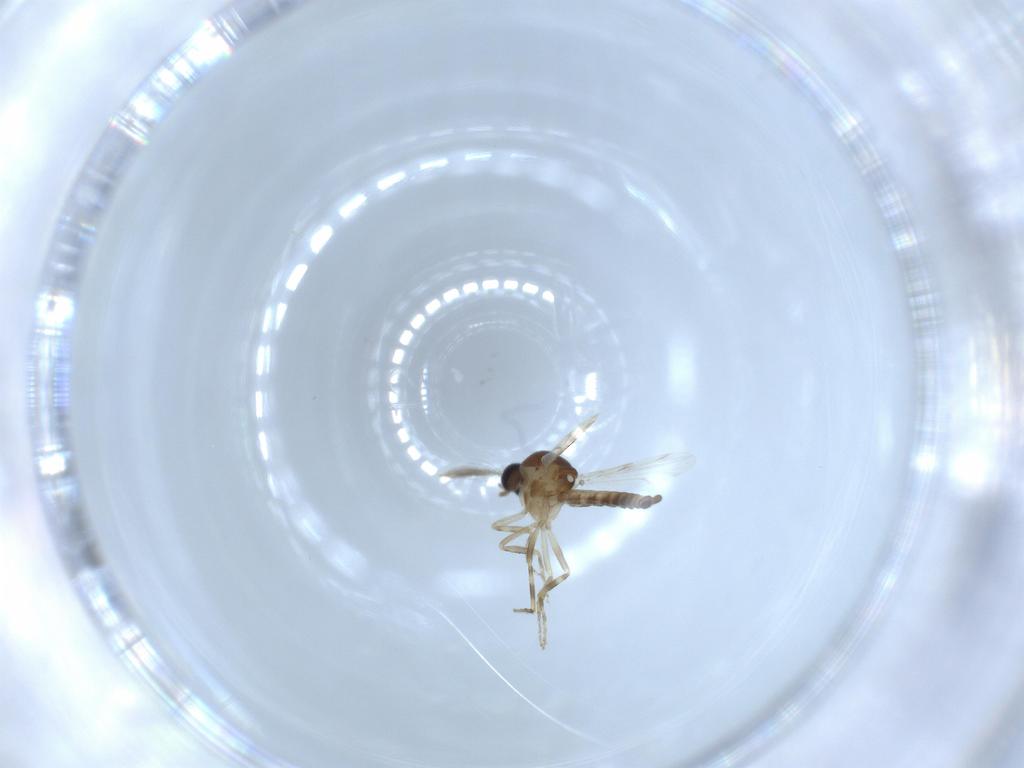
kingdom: Animalia
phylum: Arthropoda
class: Insecta
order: Diptera
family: Ceratopogonidae
